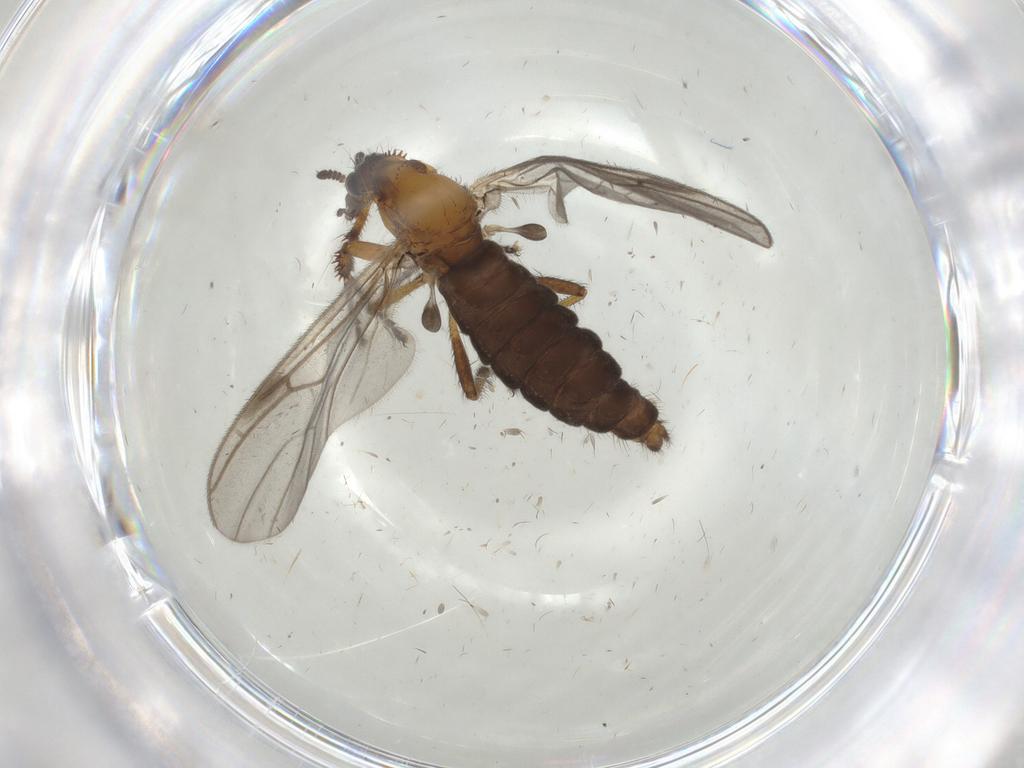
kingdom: Animalia
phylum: Arthropoda
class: Insecta
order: Diptera
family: Bibionidae
